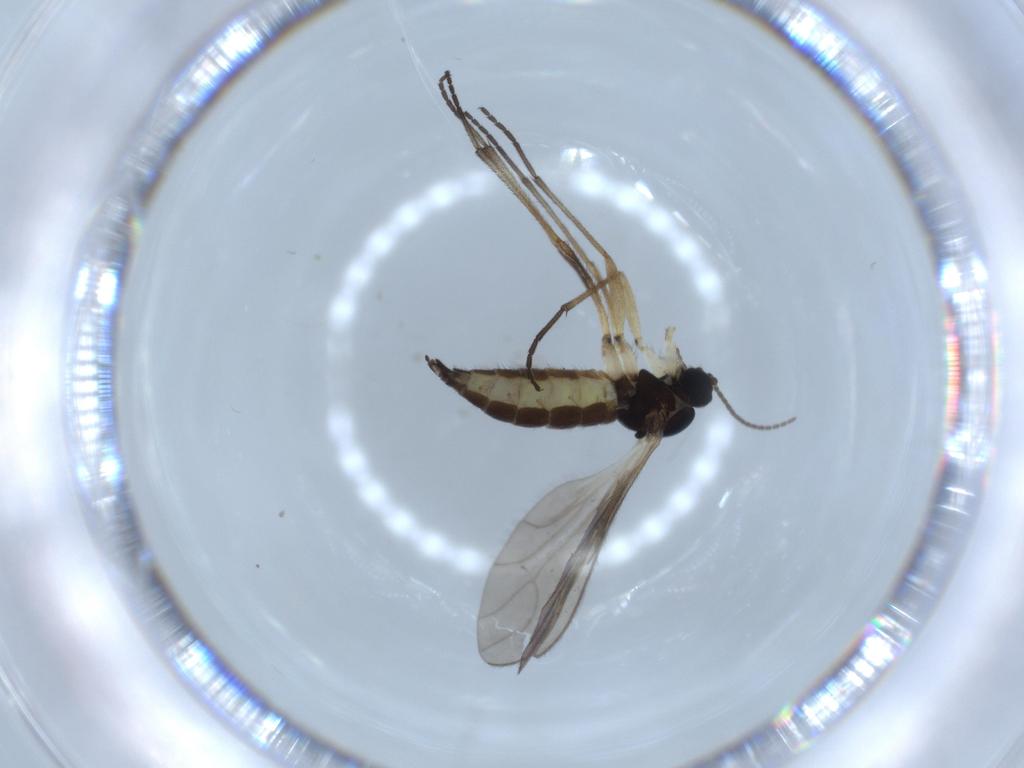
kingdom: Animalia
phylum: Arthropoda
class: Insecta
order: Diptera
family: Sciaridae
